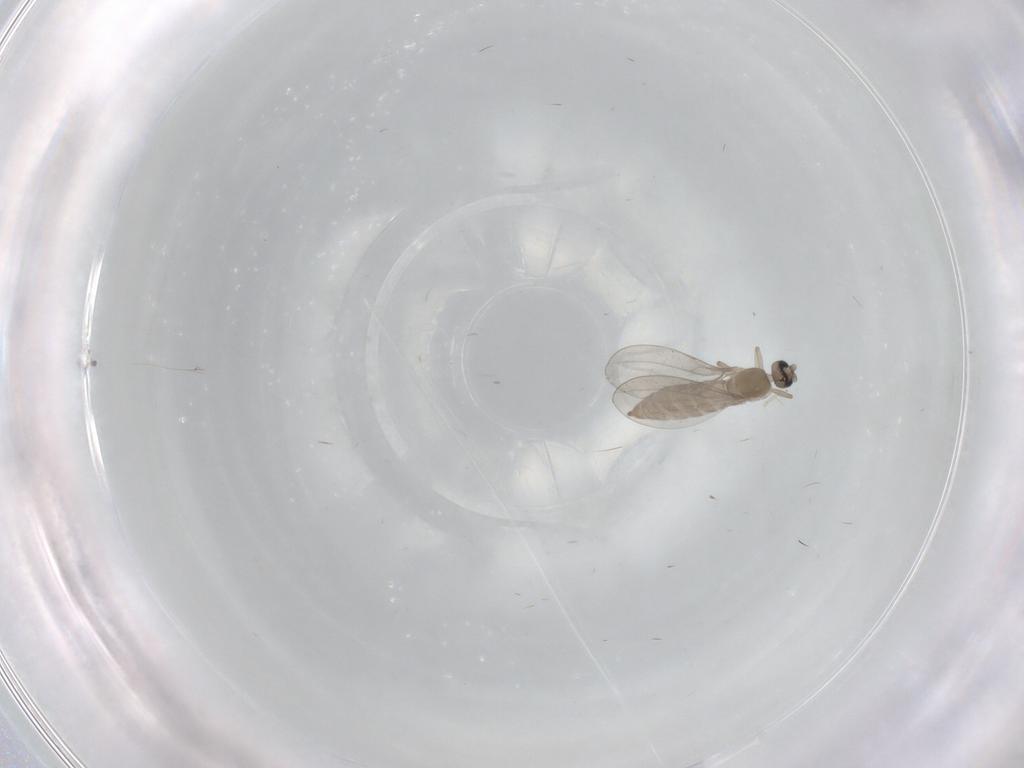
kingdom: Animalia
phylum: Arthropoda
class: Insecta
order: Diptera
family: Cecidomyiidae
